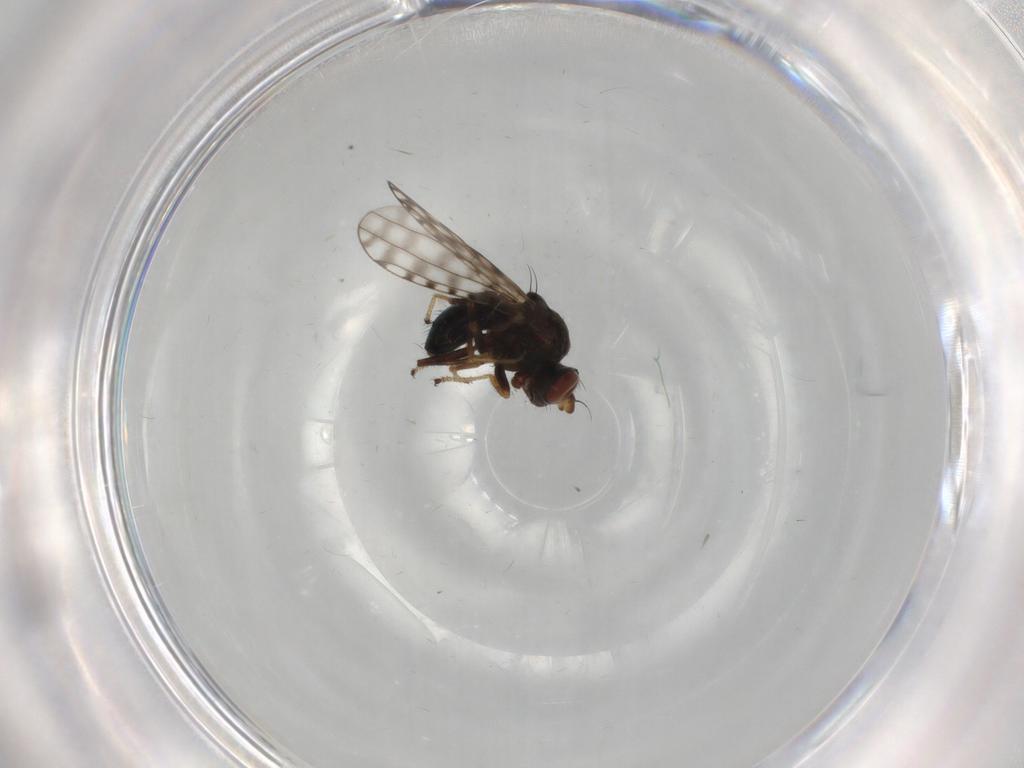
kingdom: Animalia
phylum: Arthropoda
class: Insecta
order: Diptera
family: Ephydridae
